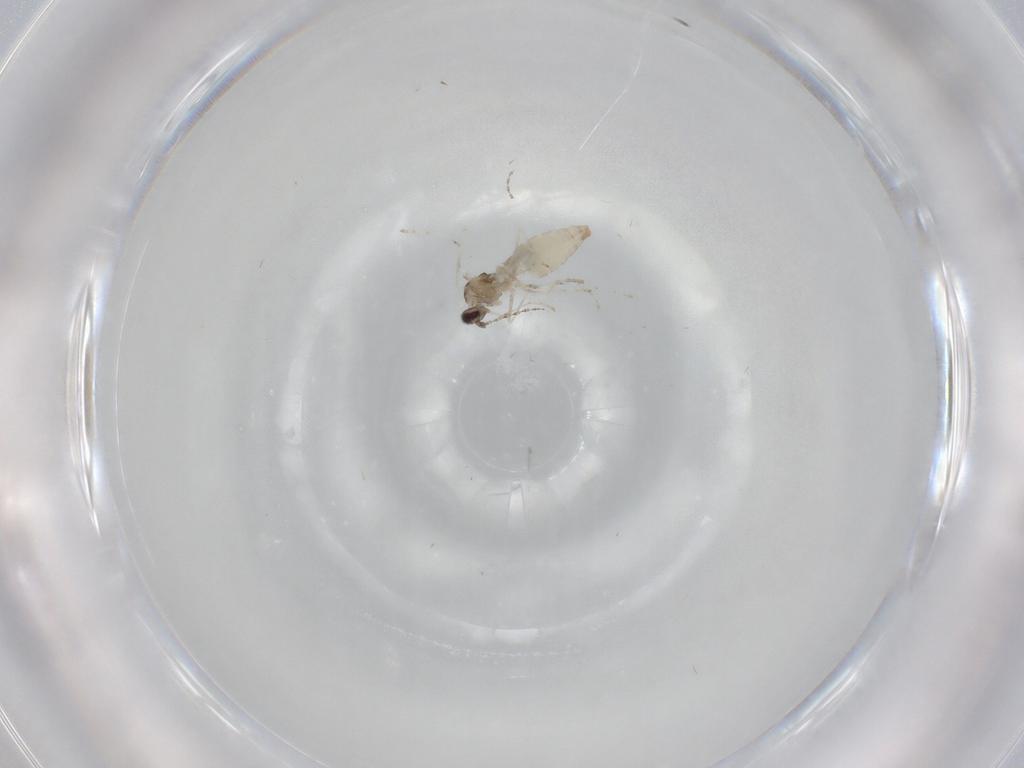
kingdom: Animalia
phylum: Arthropoda
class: Insecta
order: Diptera
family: Cecidomyiidae
